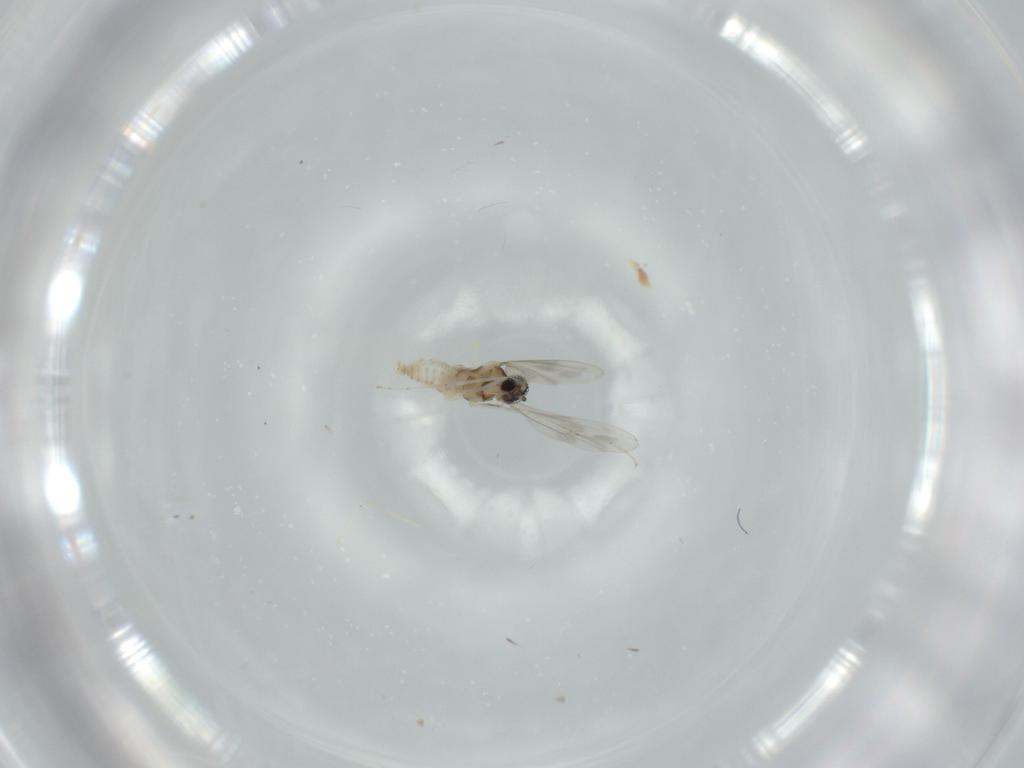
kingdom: Animalia
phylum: Arthropoda
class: Insecta
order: Diptera
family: Cecidomyiidae
